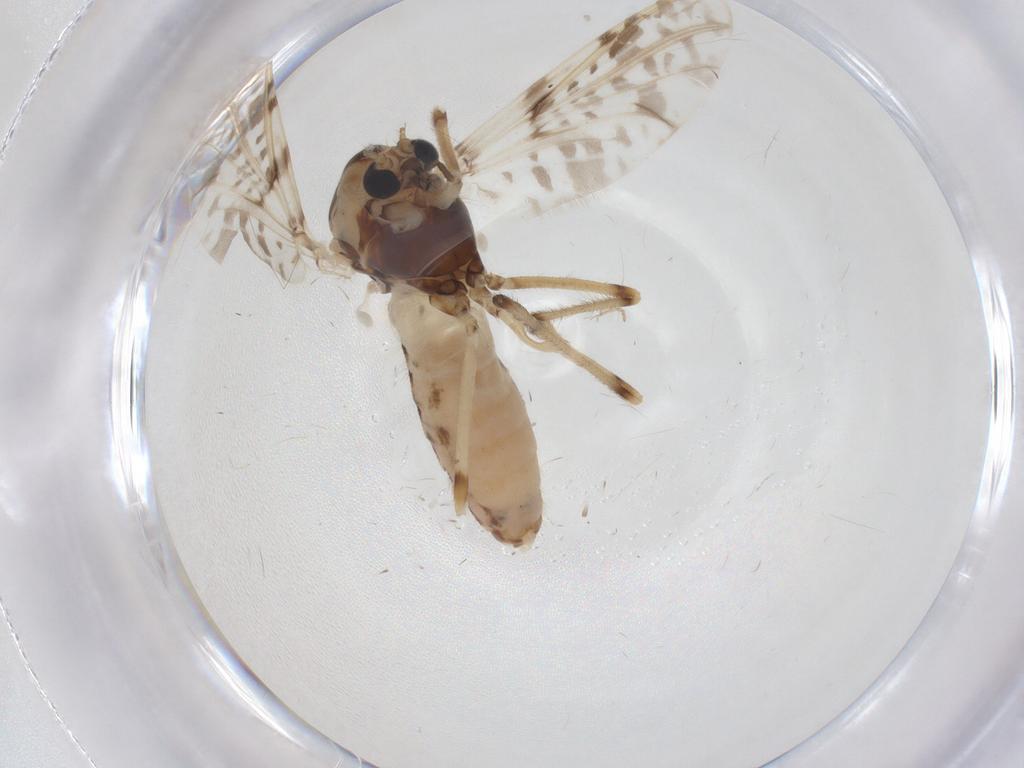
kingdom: Animalia
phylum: Arthropoda
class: Insecta
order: Diptera
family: Chironomidae
